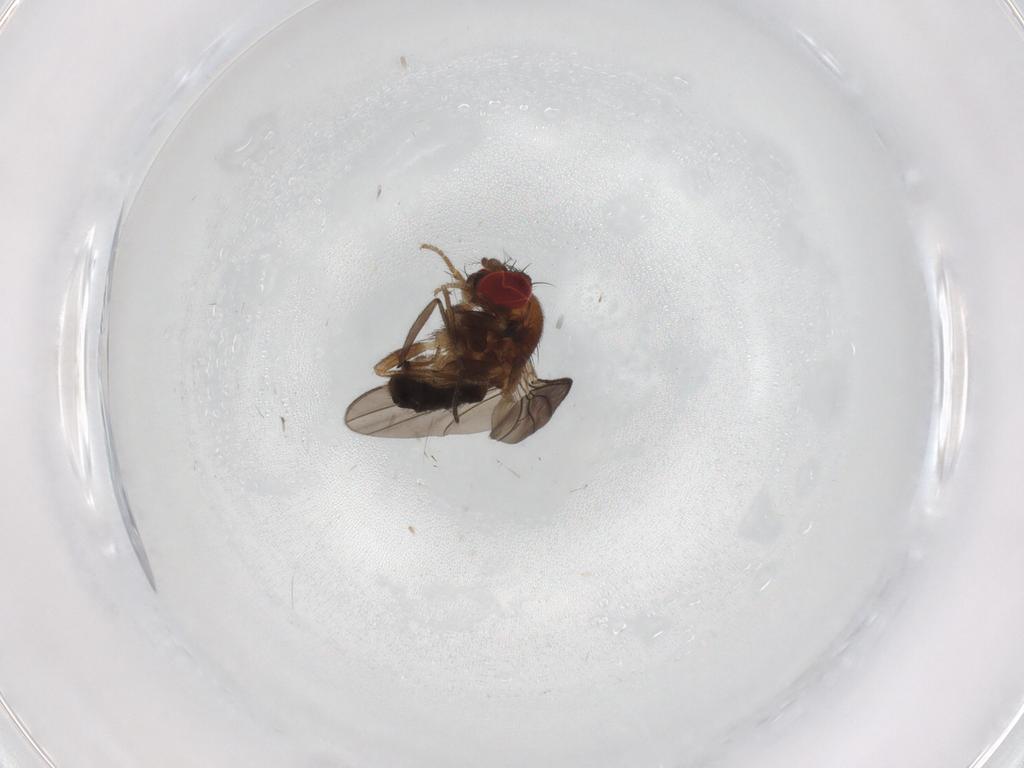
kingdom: Animalia
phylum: Arthropoda
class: Insecta
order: Diptera
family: Drosophilidae
